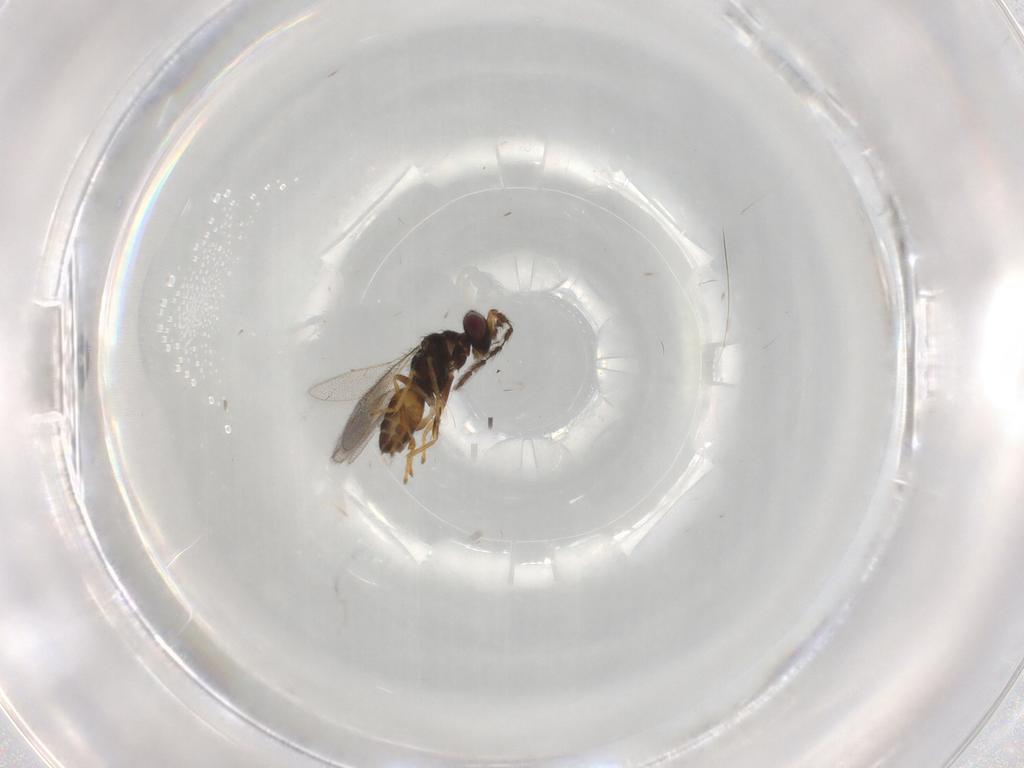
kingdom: Animalia
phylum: Arthropoda
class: Insecta
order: Hymenoptera
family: Eulophidae
